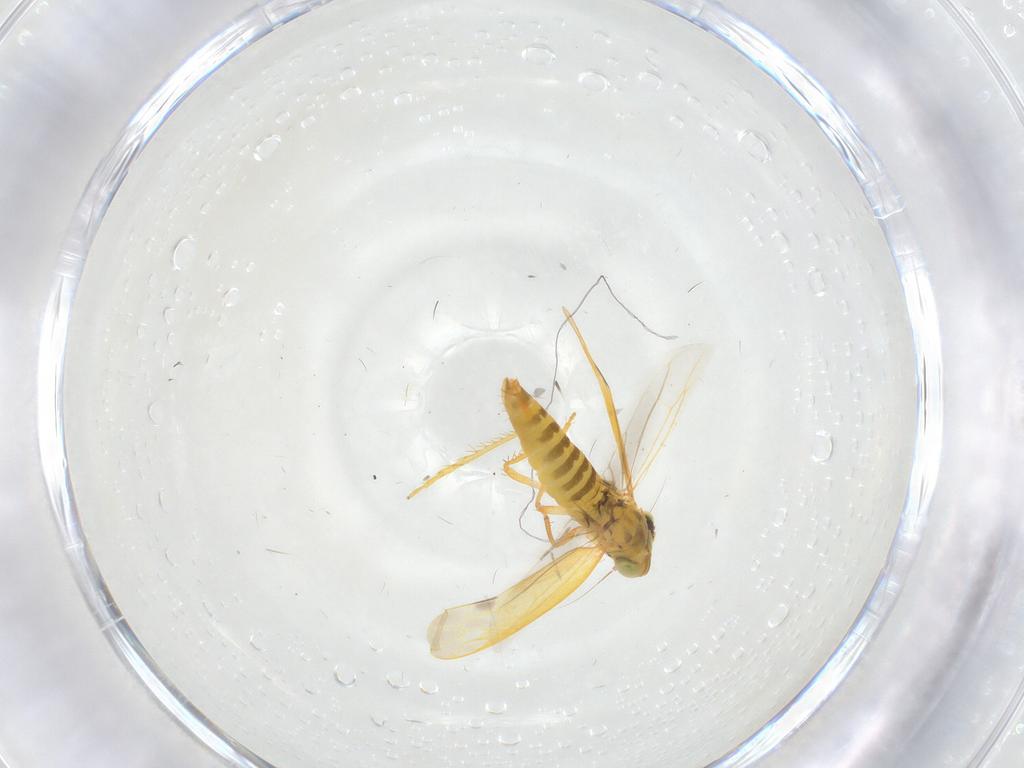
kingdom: Animalia
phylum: Arthropoda
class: Insecta
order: Hemiptera
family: Cicadellidae
